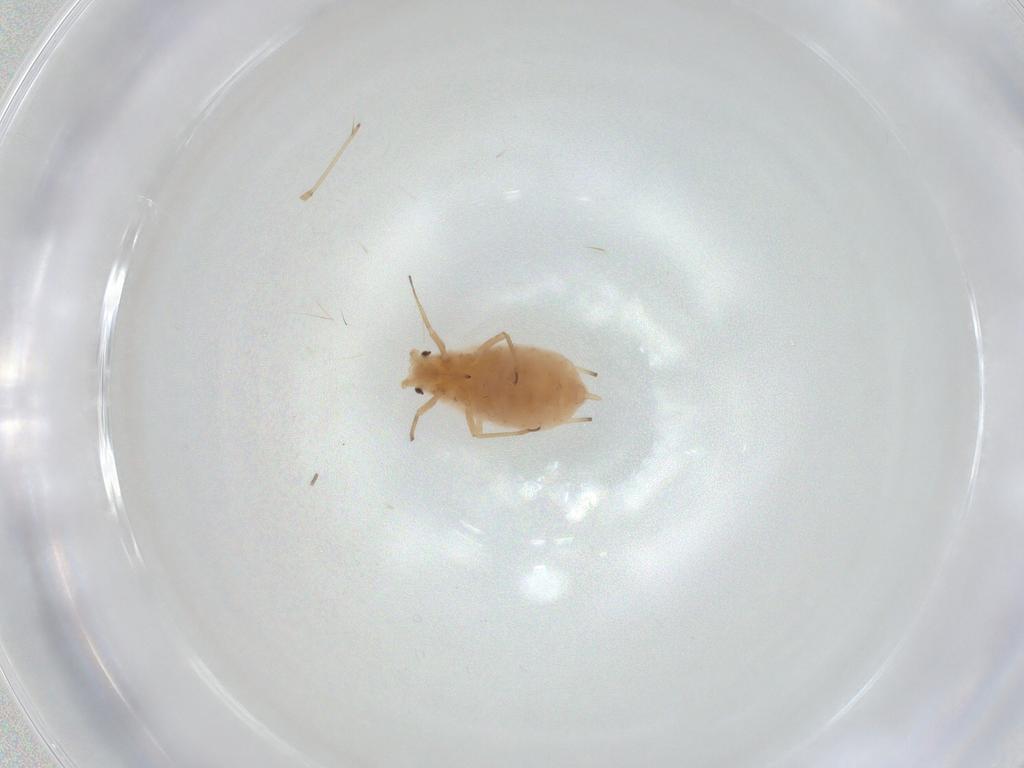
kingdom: Animalia
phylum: Arthropoda
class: Insecta
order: Hemiptera
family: Aphididae
